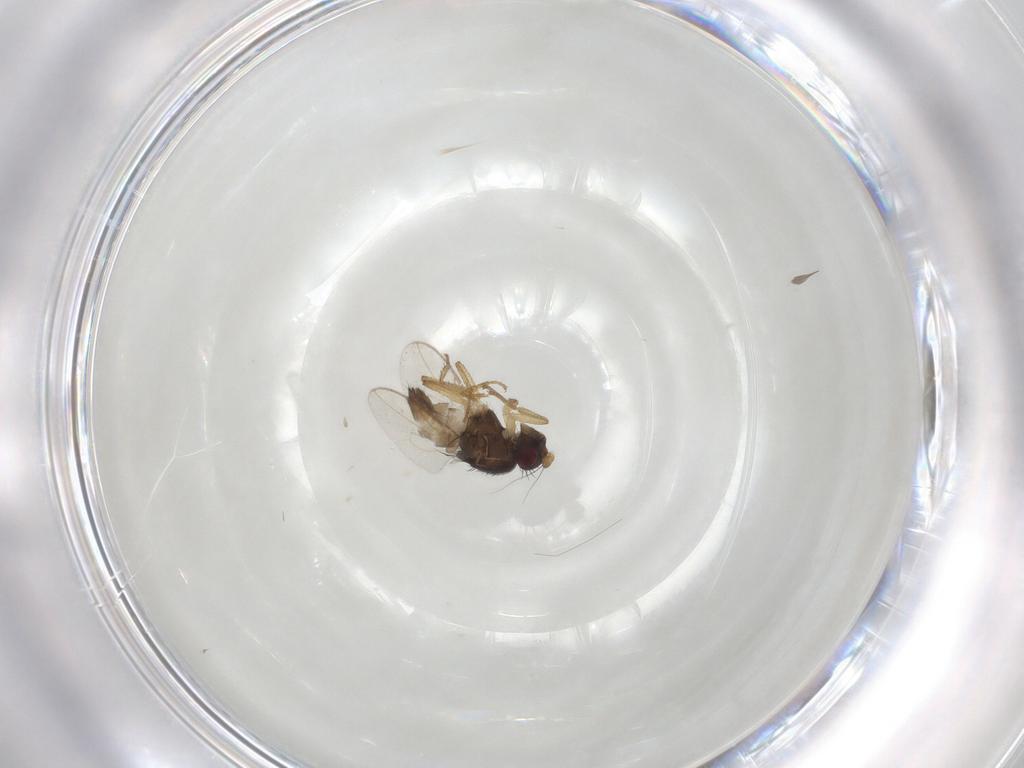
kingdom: Animalia
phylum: Arthropoda
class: Insecta
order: Diptera
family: Sphaeroceridae
